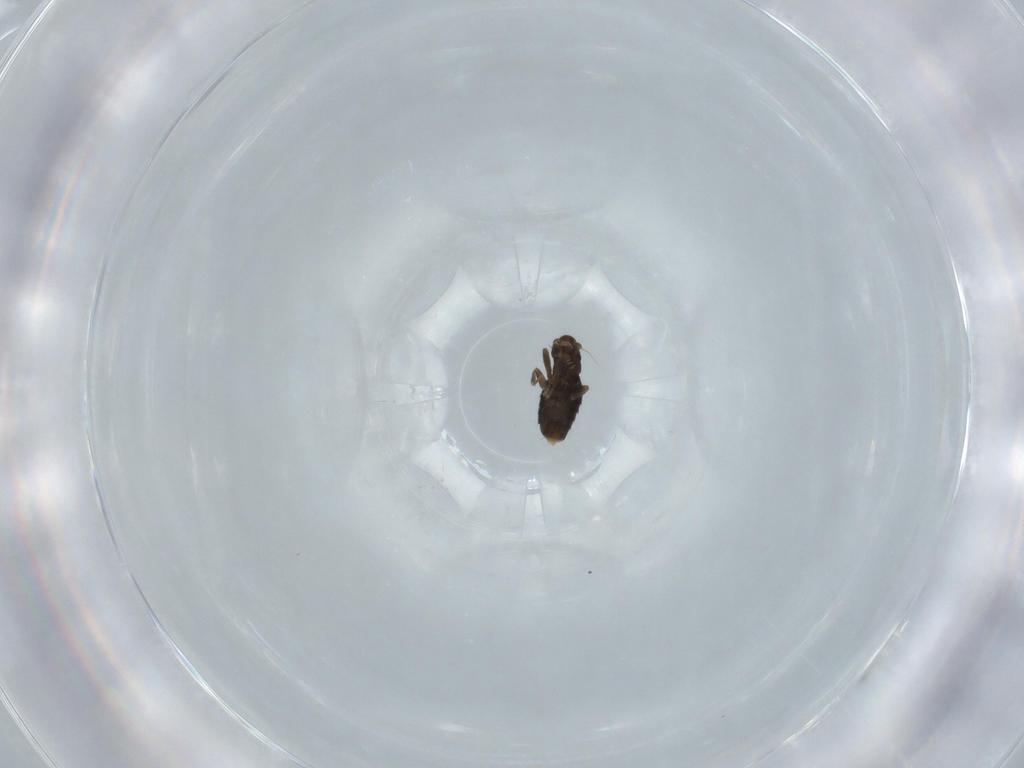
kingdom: Animalia
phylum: Arthropoda
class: Insecta
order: Diptera
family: Phoridae
